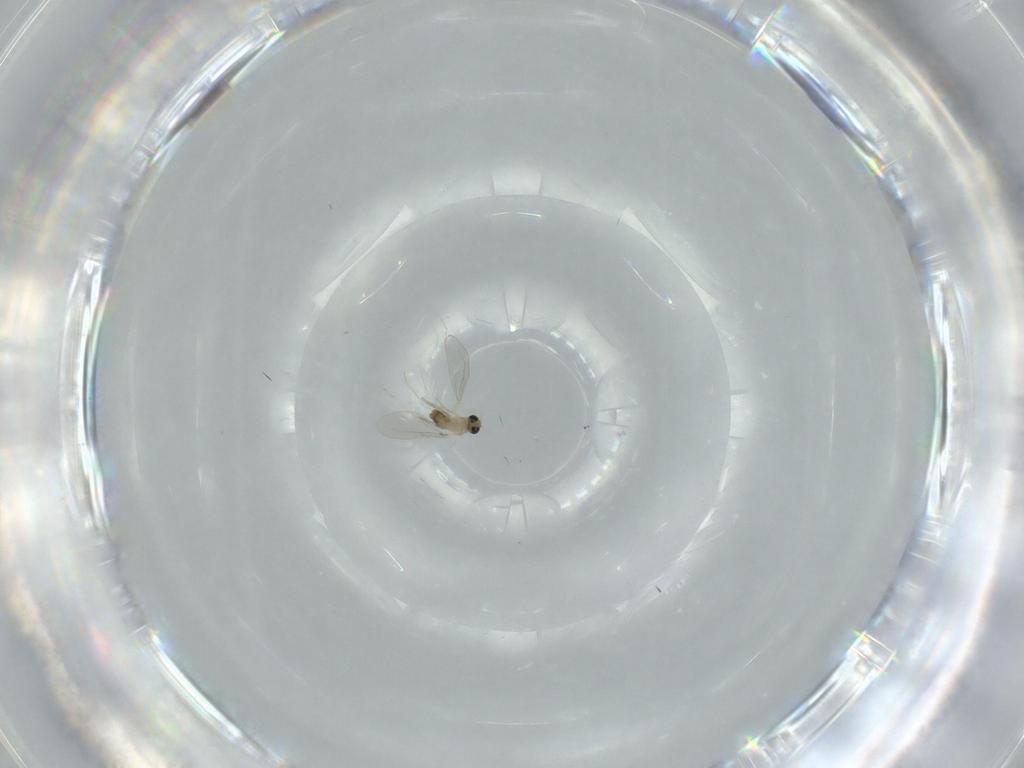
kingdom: Animalia
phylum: Arthropoda
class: Insecta
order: Diptera
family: Cecidomyiidae
